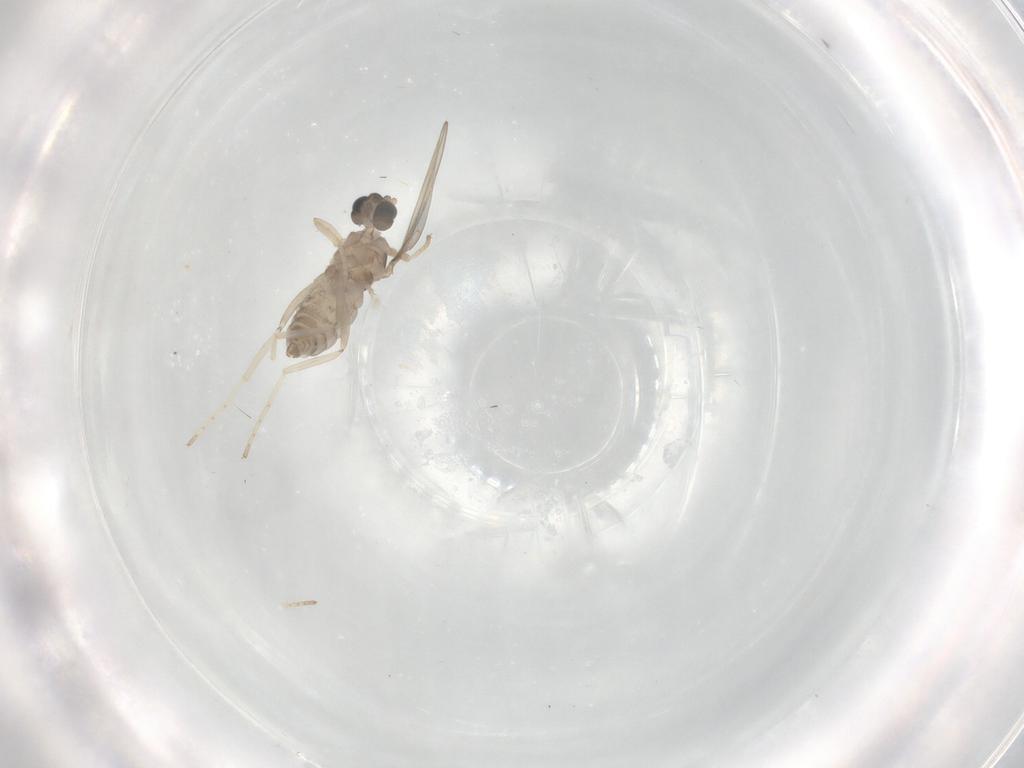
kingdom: Animalia
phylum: Arthropoda
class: Insecta
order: Diptera
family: Cecidomyiidae
